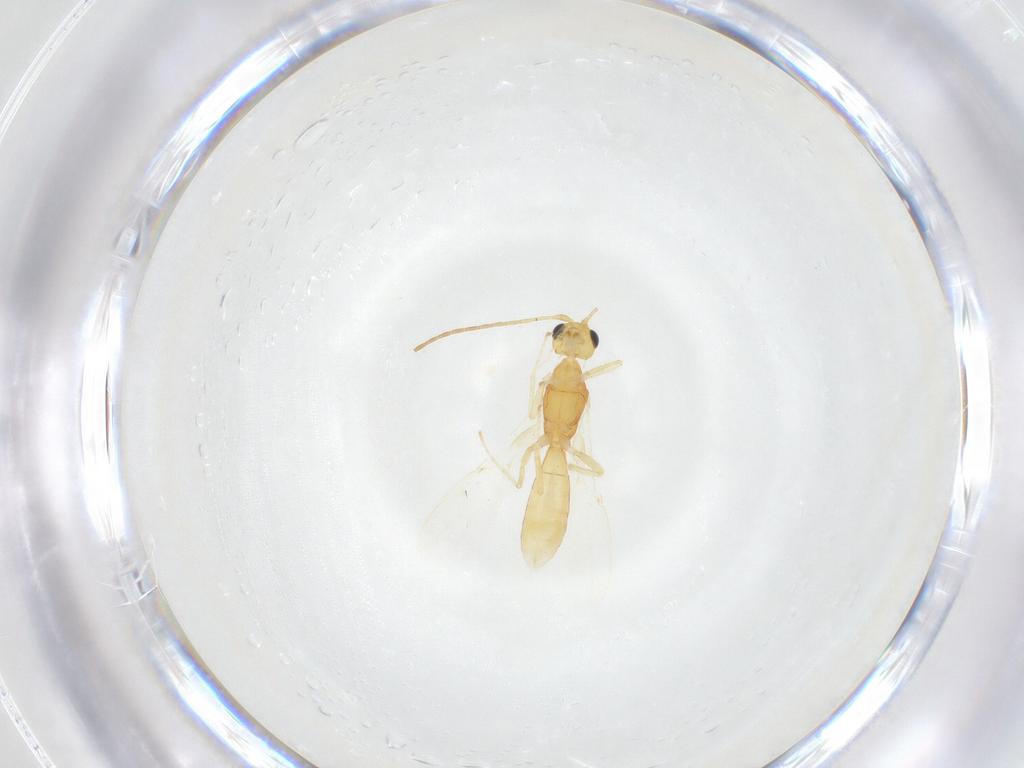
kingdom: Animalia
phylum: Arthropoda
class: Insecta
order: Hymenoptera
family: Braconidae
